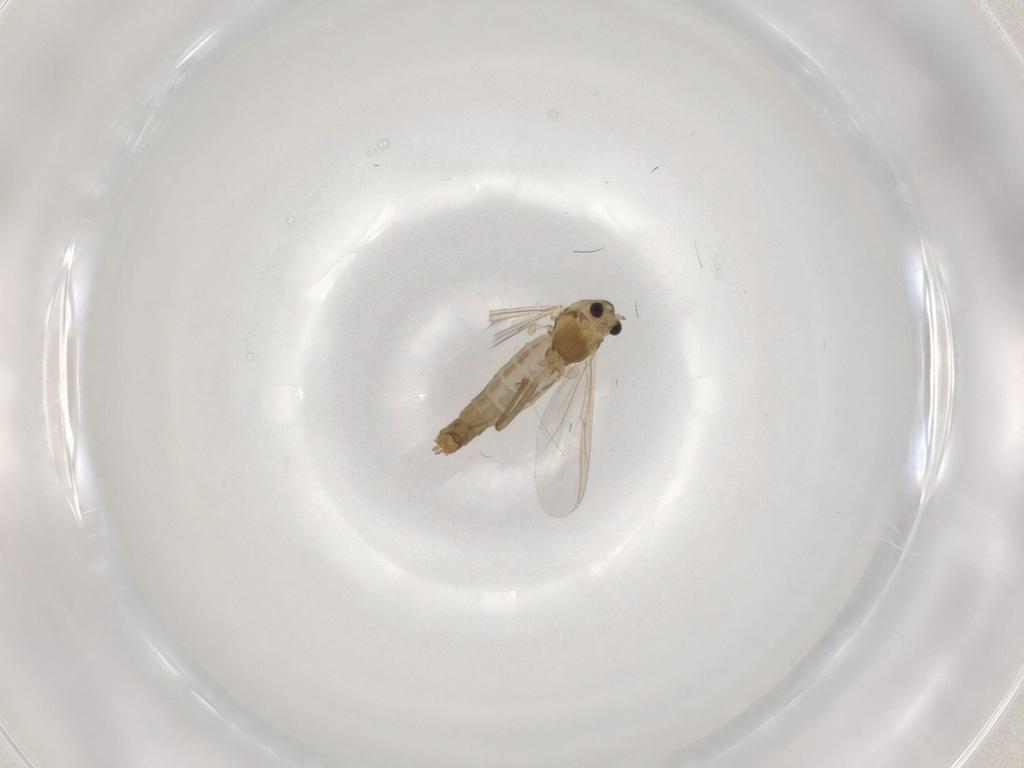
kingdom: Animalia
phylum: Arthropoda
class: Insecta
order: Diptera
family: Chironomidae
